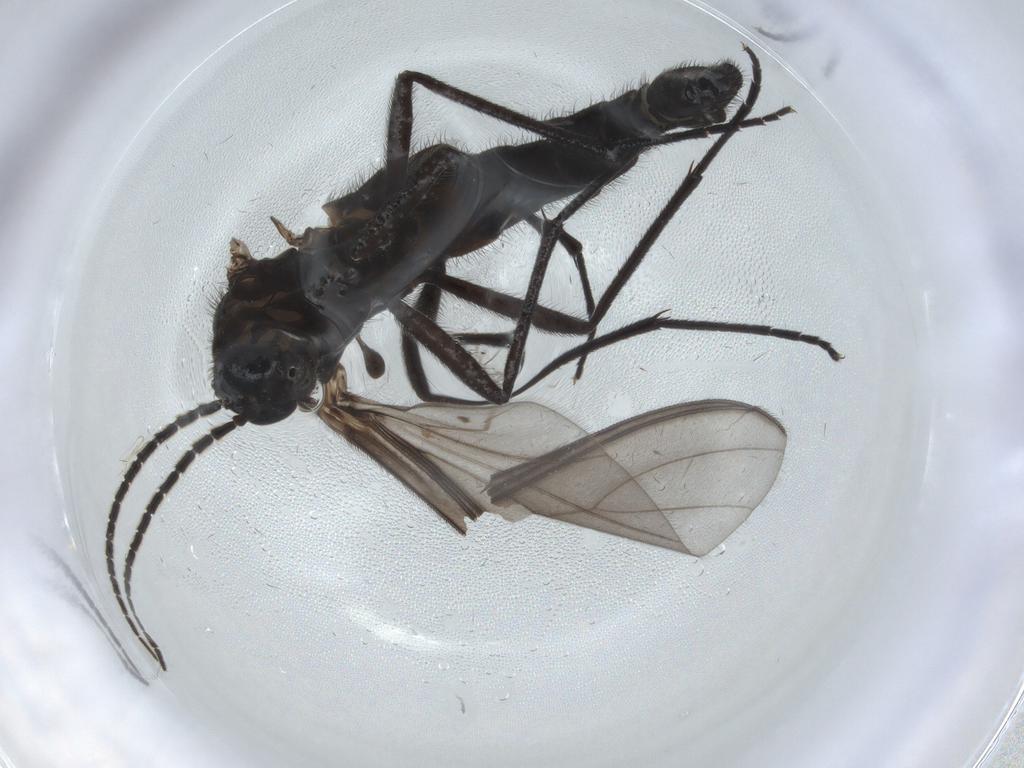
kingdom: Animalia
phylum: Arthropoda
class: Insecta
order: Diptera
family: Chironomidae
